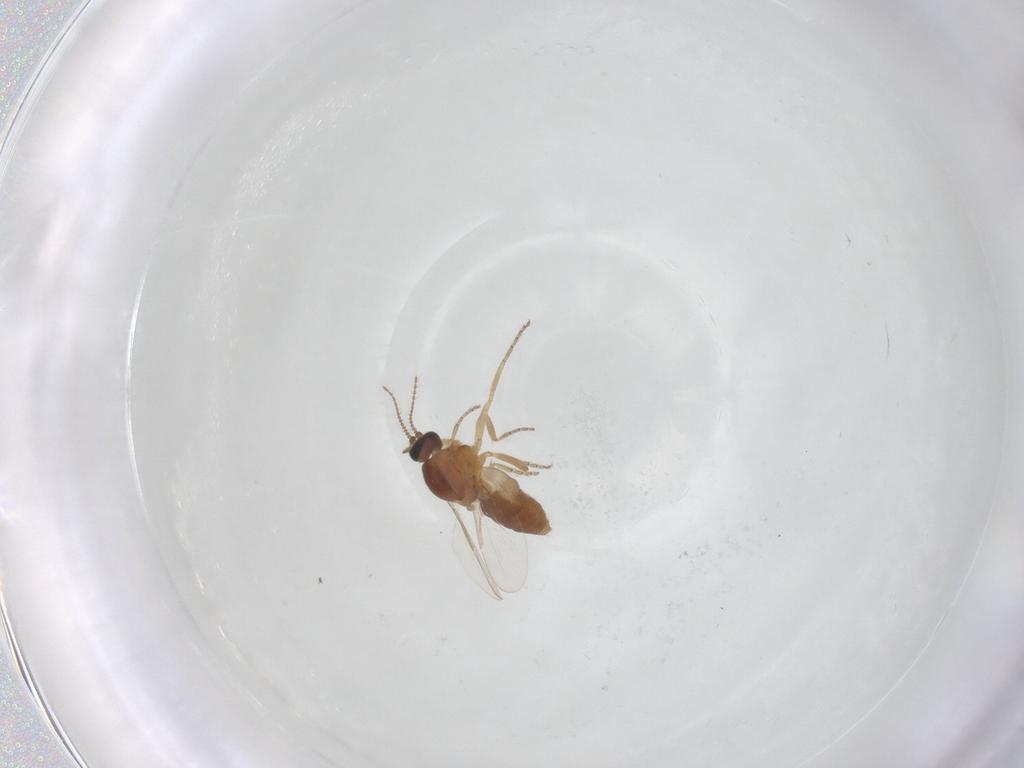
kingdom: Animalia
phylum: Arthropoda
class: Insecta
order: Diptera
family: Ceratopogonidae
